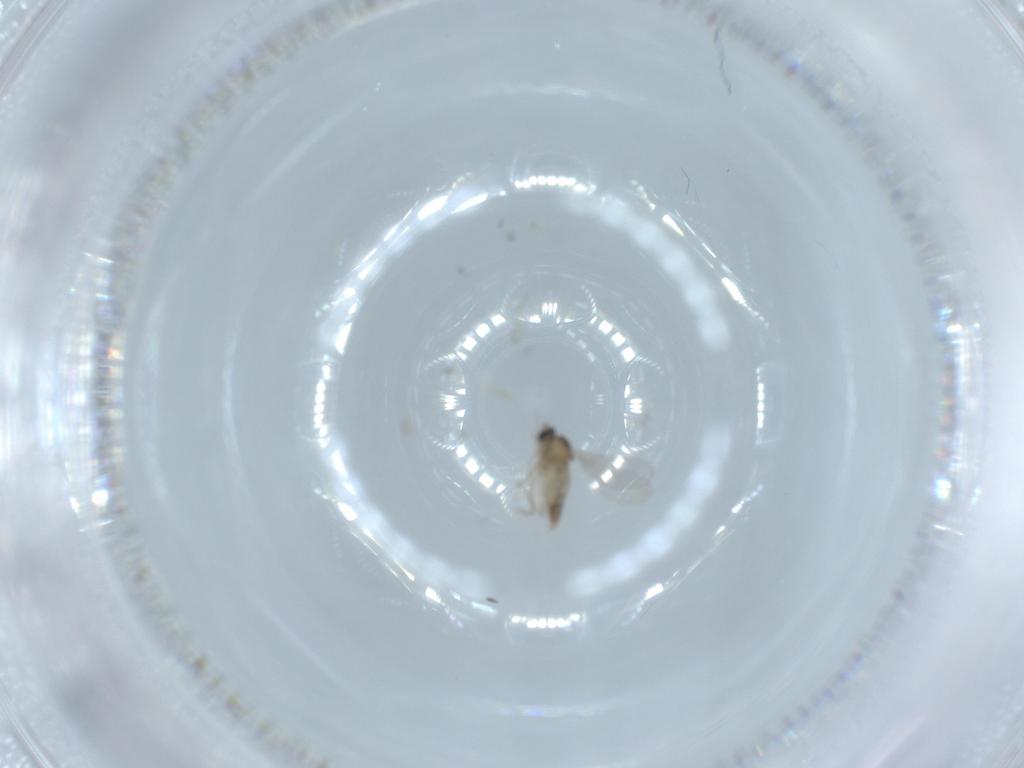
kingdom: Animalia
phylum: Arthropoda
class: Insecta
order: Diptera
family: Cecidomyiidae
